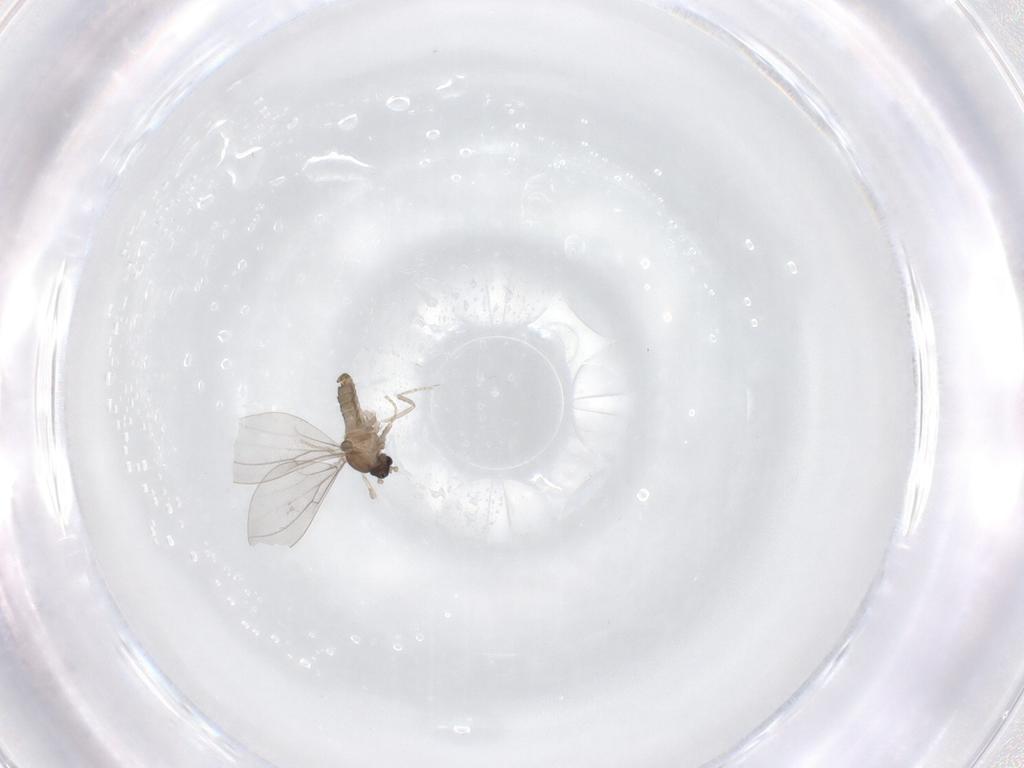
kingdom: Animalia
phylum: Arthropoda
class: Insecta
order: Diptera
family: Cecidomyiidae
